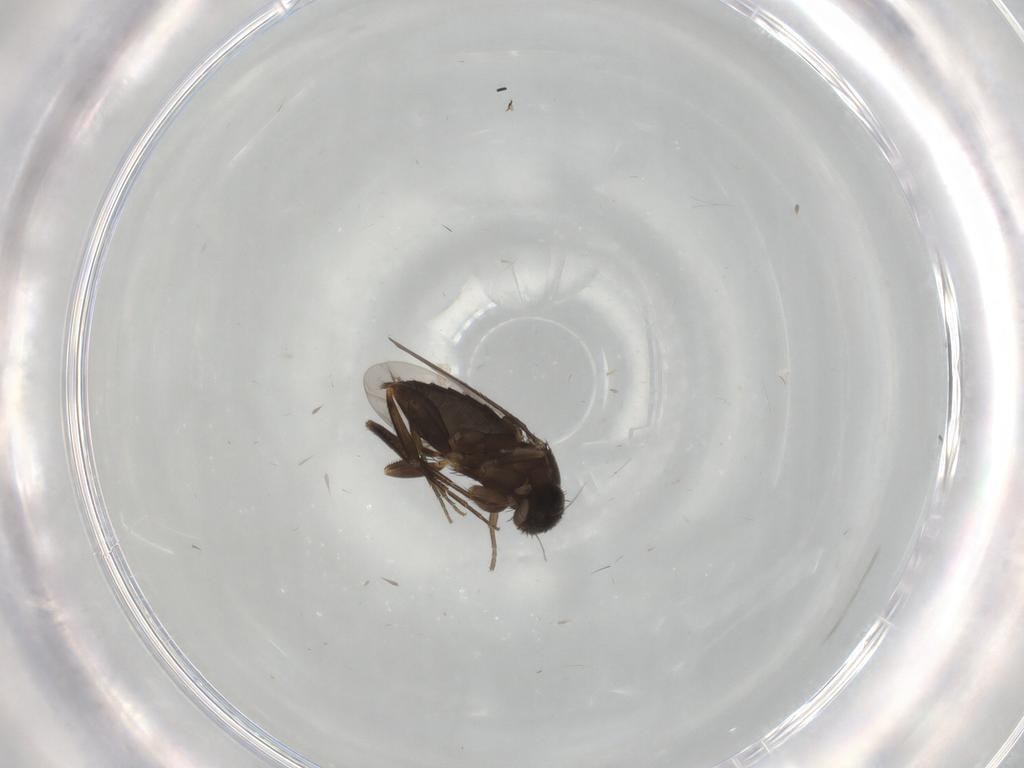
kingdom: Animalia
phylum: Arthropoda
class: Insecta
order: Diptera
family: Phoridae
